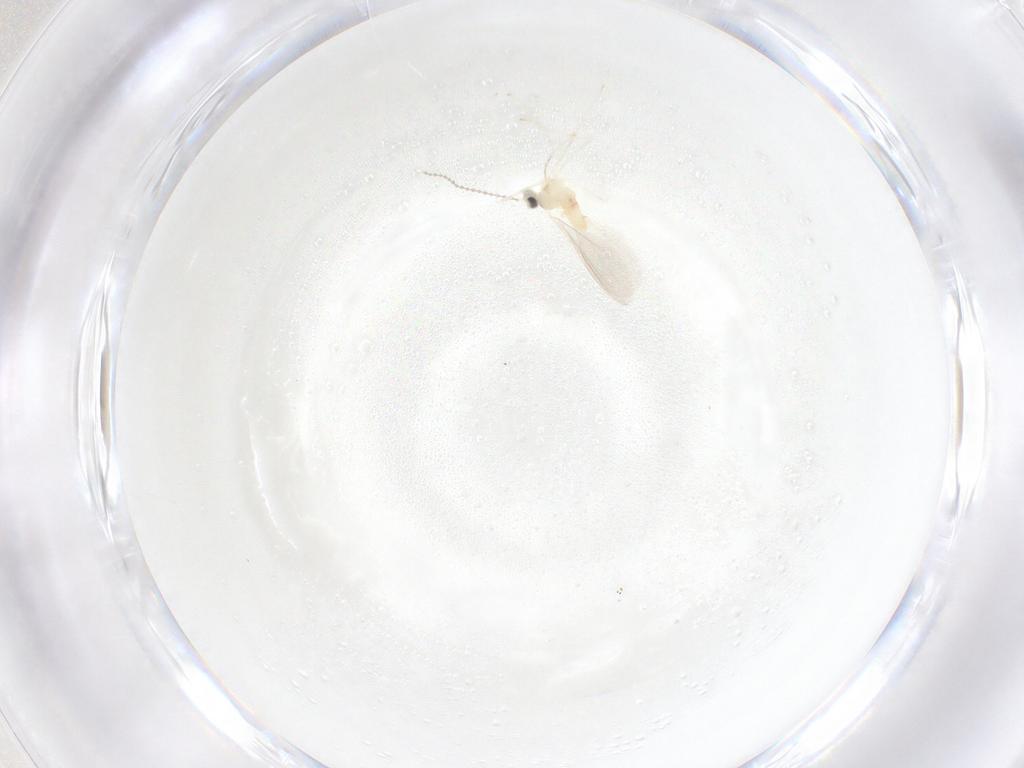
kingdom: Animalia
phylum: Arthropoda
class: Insecta
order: Diptera
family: Cecidomyiidae
